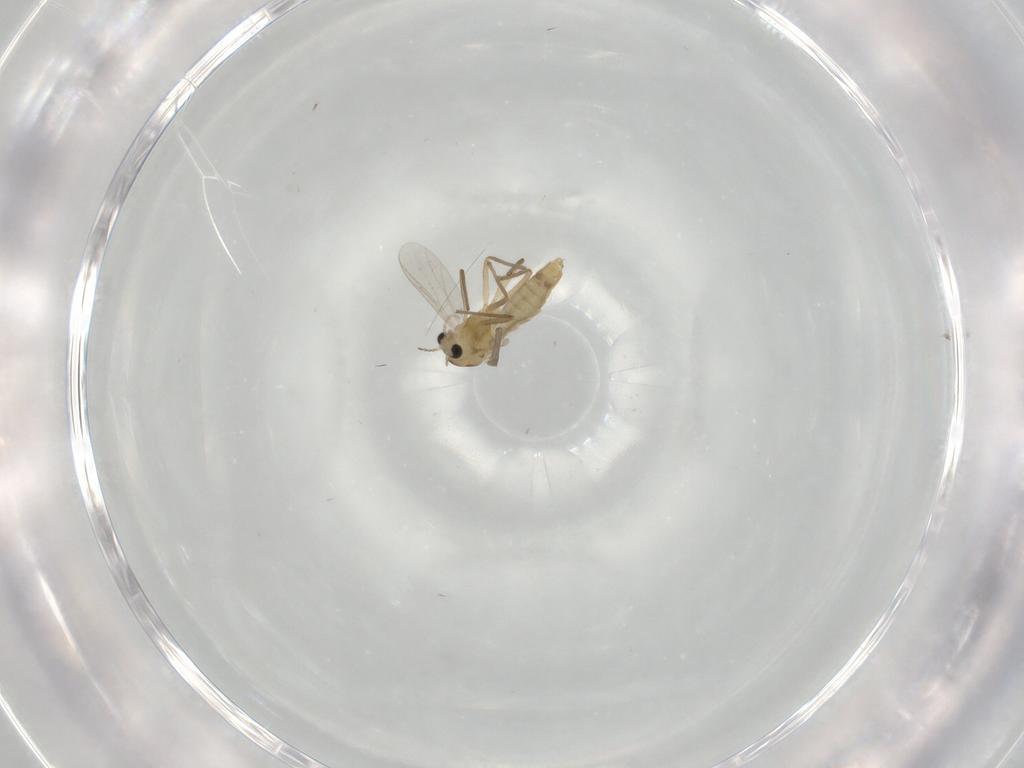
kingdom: Animalia
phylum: Arthropoda
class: Insecta
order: Diptera
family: Chironomidae
